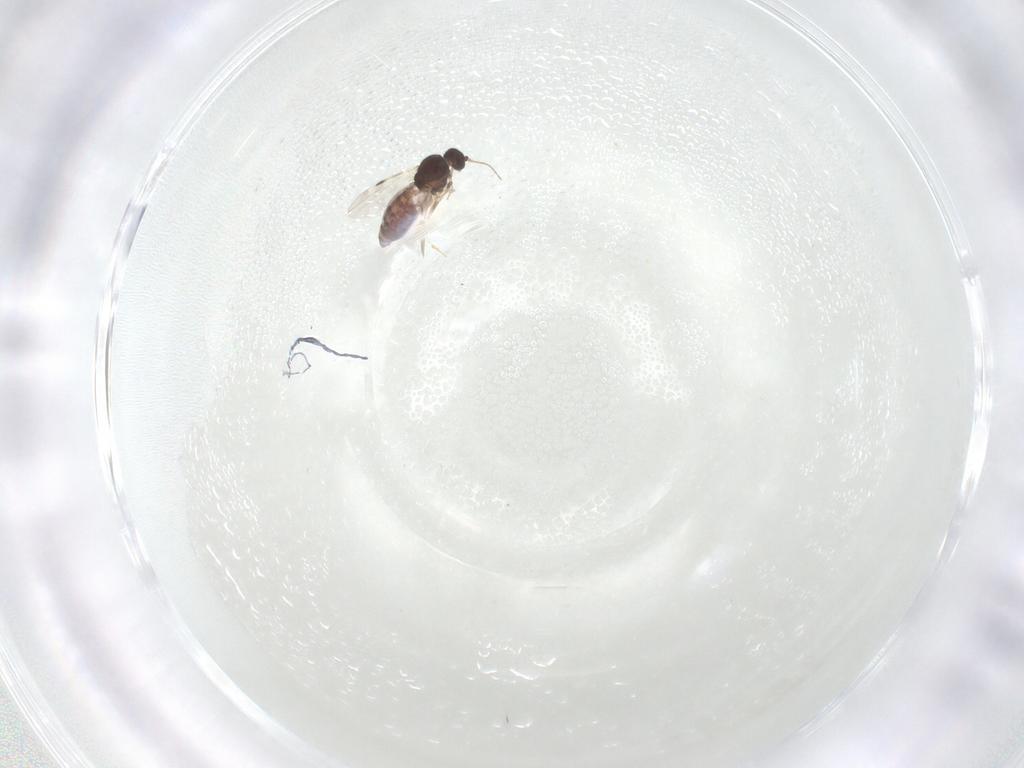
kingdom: Animalia
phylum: Arthropoda
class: Insecta
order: Diptera
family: Phoridae
